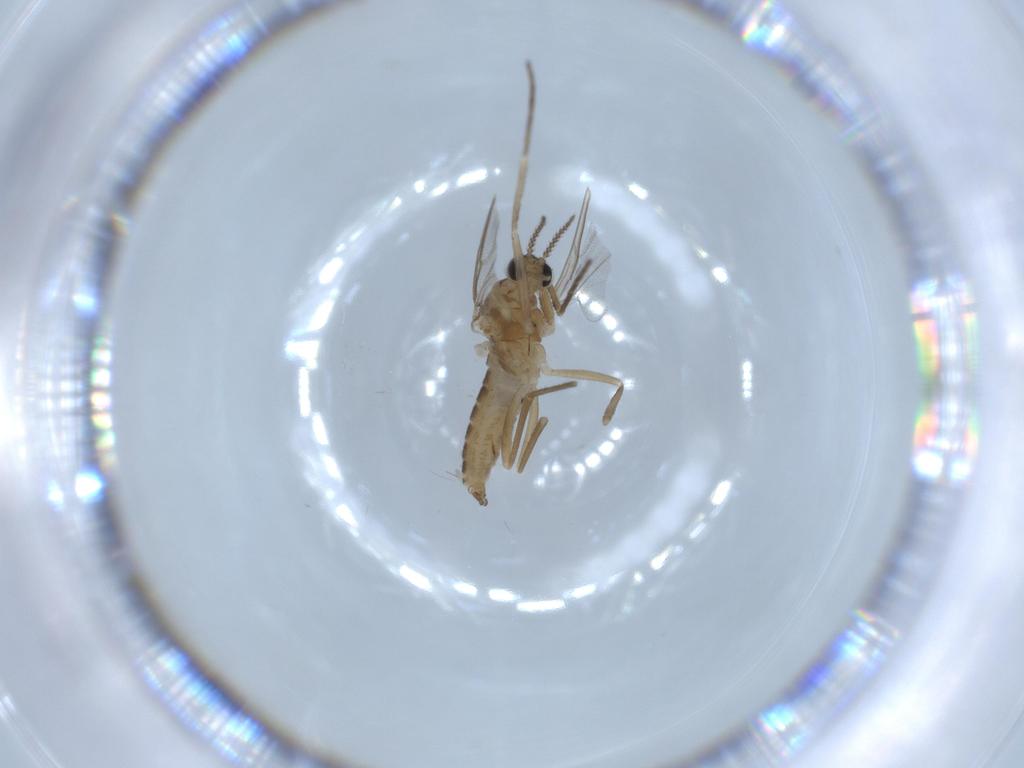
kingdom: Animalia
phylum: Arthropoda
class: Insecta
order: Diptera
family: Cecidomyiidae
